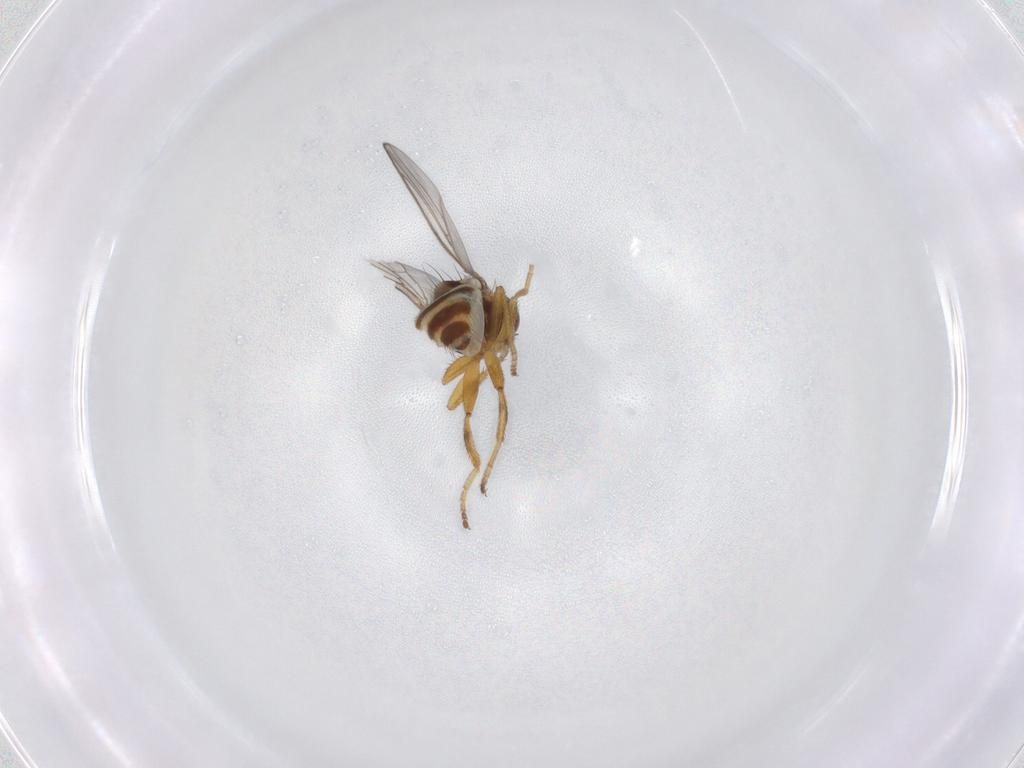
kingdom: Animalia
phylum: Arthropoda
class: Insecta
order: Diptera
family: Chloropidae
